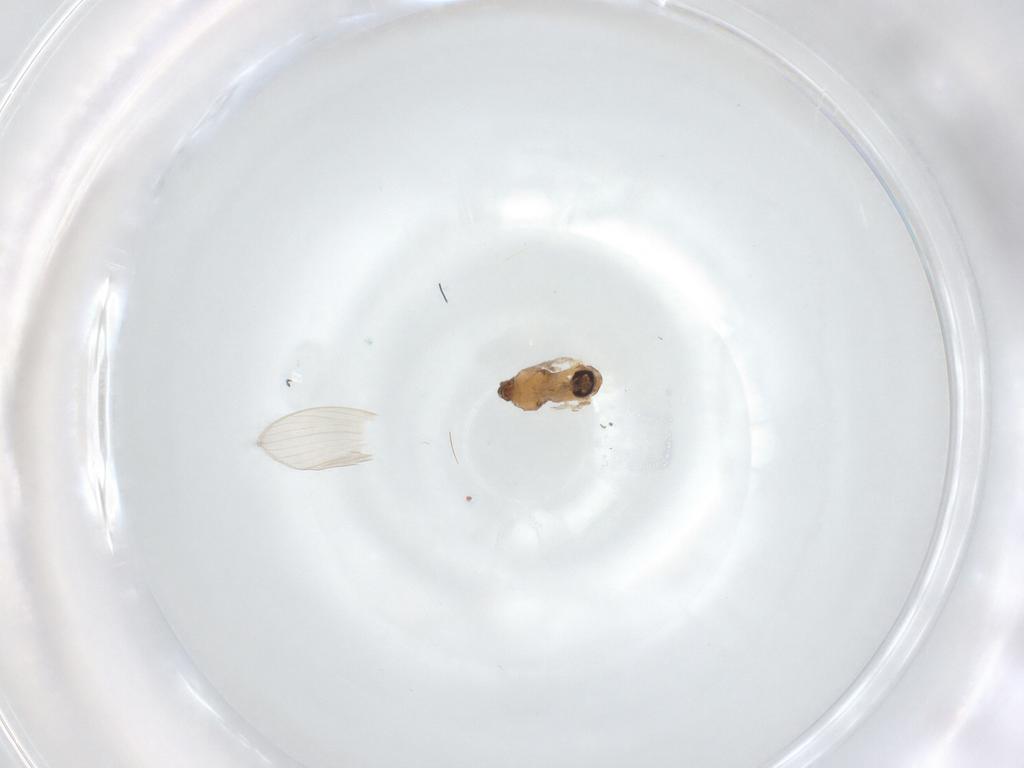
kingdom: Animalia
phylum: Arthropoda
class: Insecta
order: Diptera
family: Psychodidae
